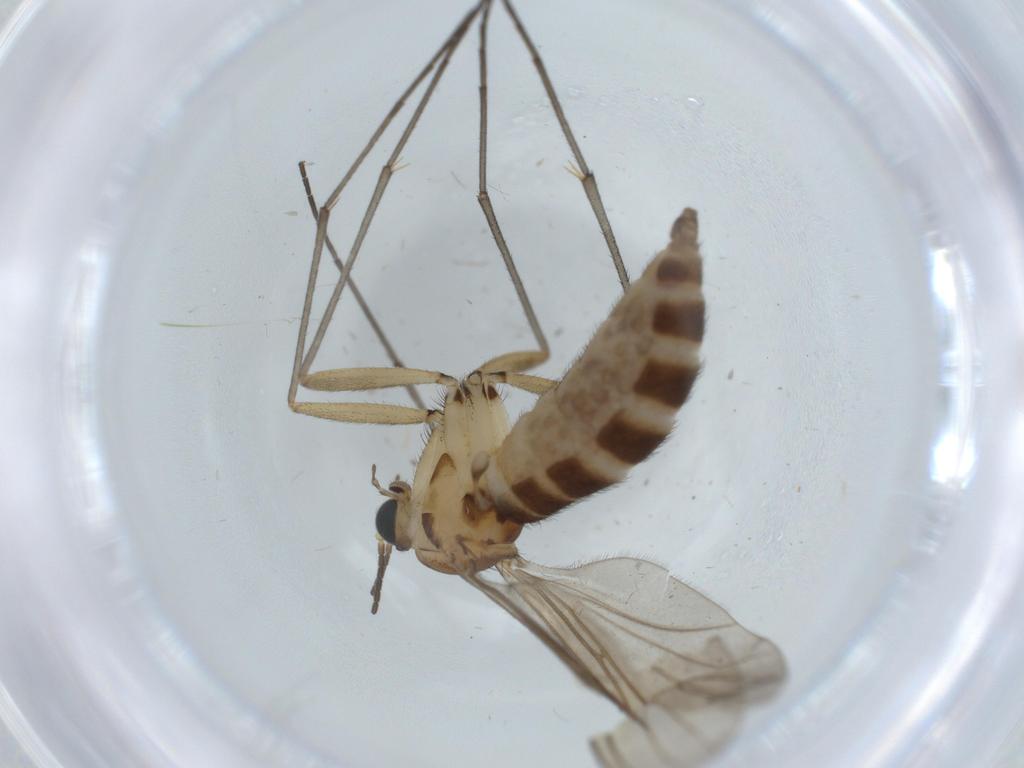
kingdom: Animalia
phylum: Arthropoda
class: Insecta
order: Diptera
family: Sciaridae
